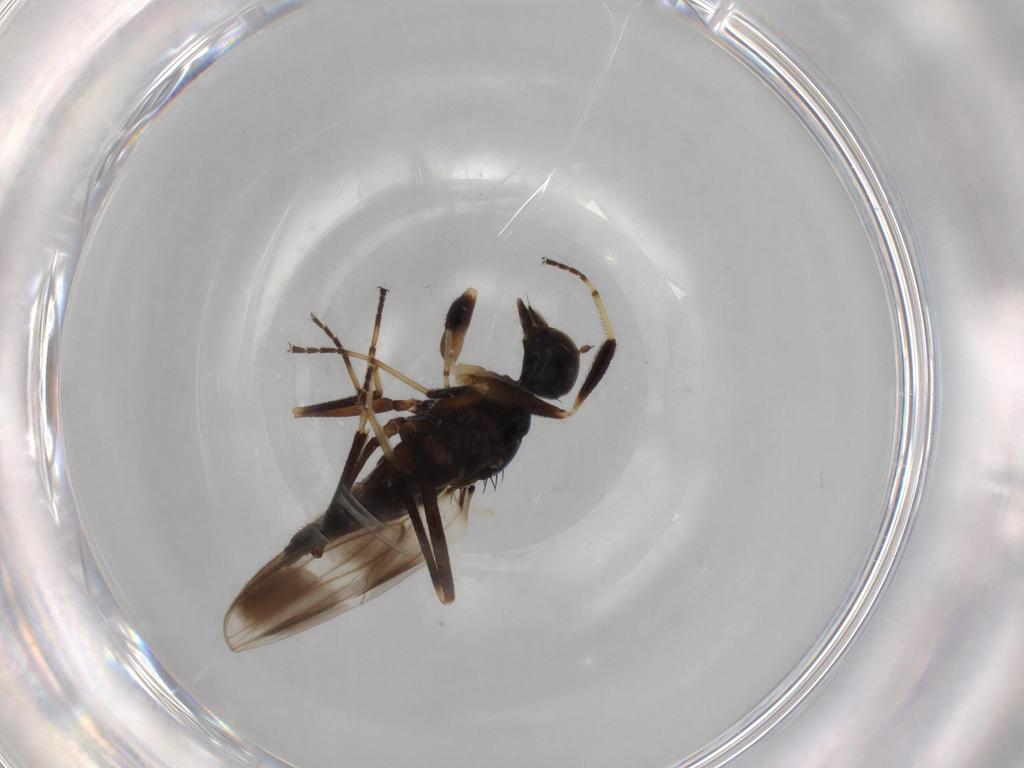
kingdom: Animalia
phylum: Arthropoda
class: Insecta
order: Diptera
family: Hybotidae
